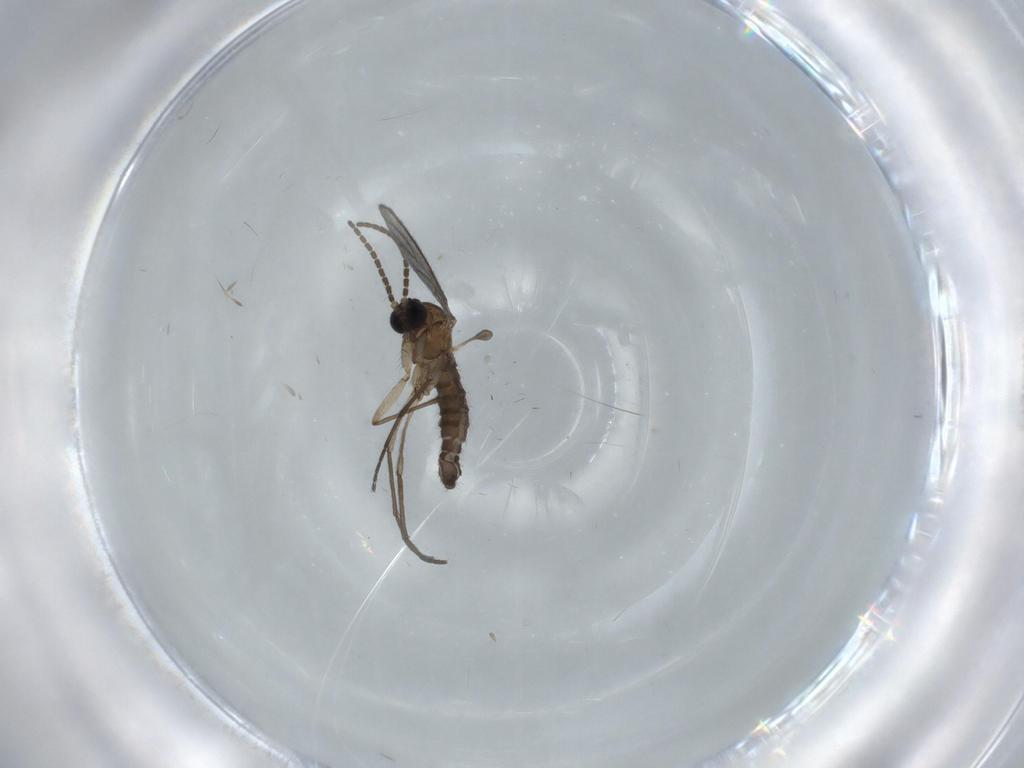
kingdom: Animalia
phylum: Arthropoda
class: Insecta
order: Diptera
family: Sciaridae
